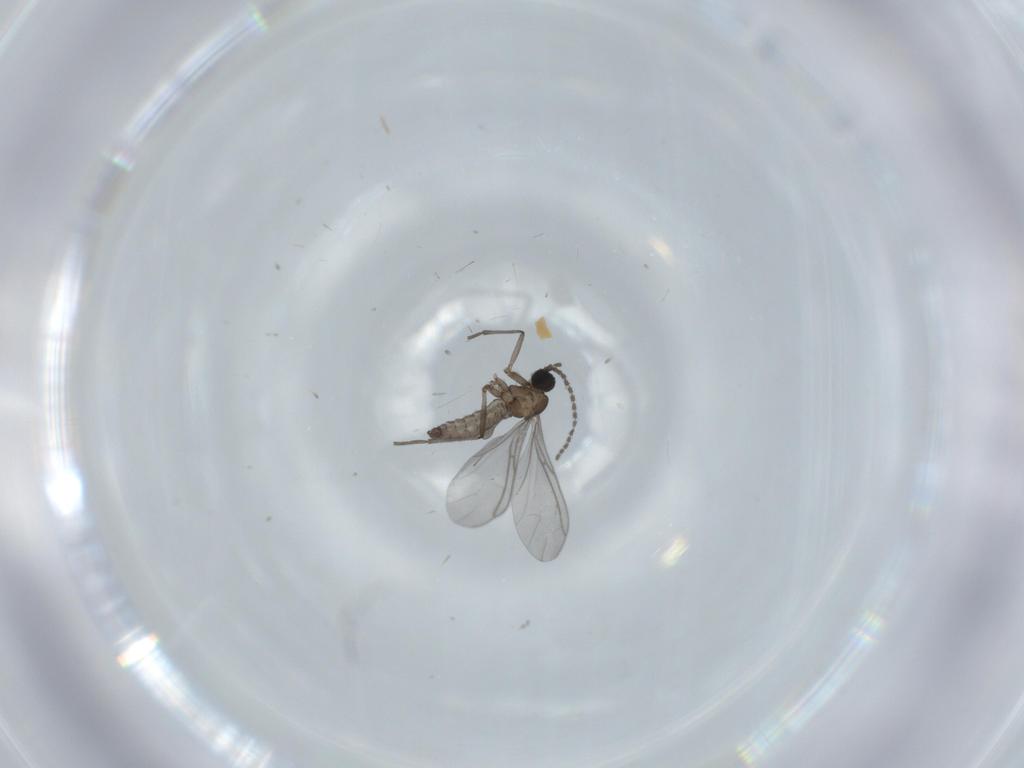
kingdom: Animalia
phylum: Arthropoda
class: Insecta
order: Diptera
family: Sciaridae
